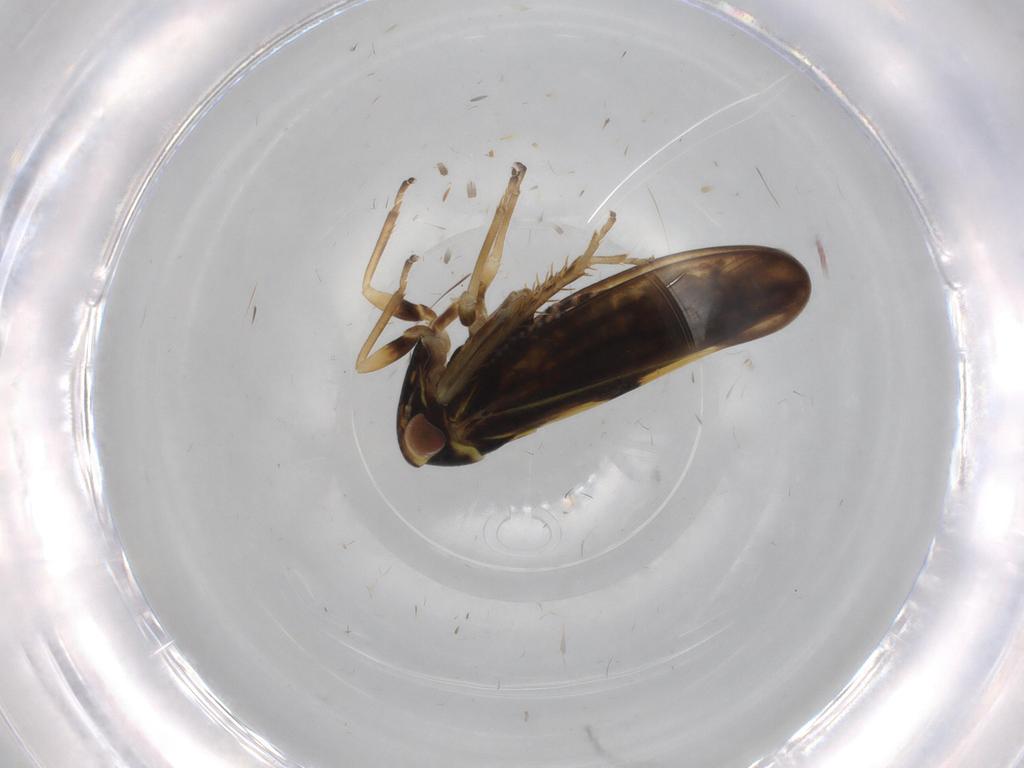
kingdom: Animalia
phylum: Arthropoda
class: Insecta
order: Hemiptera
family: Cicadellidae
